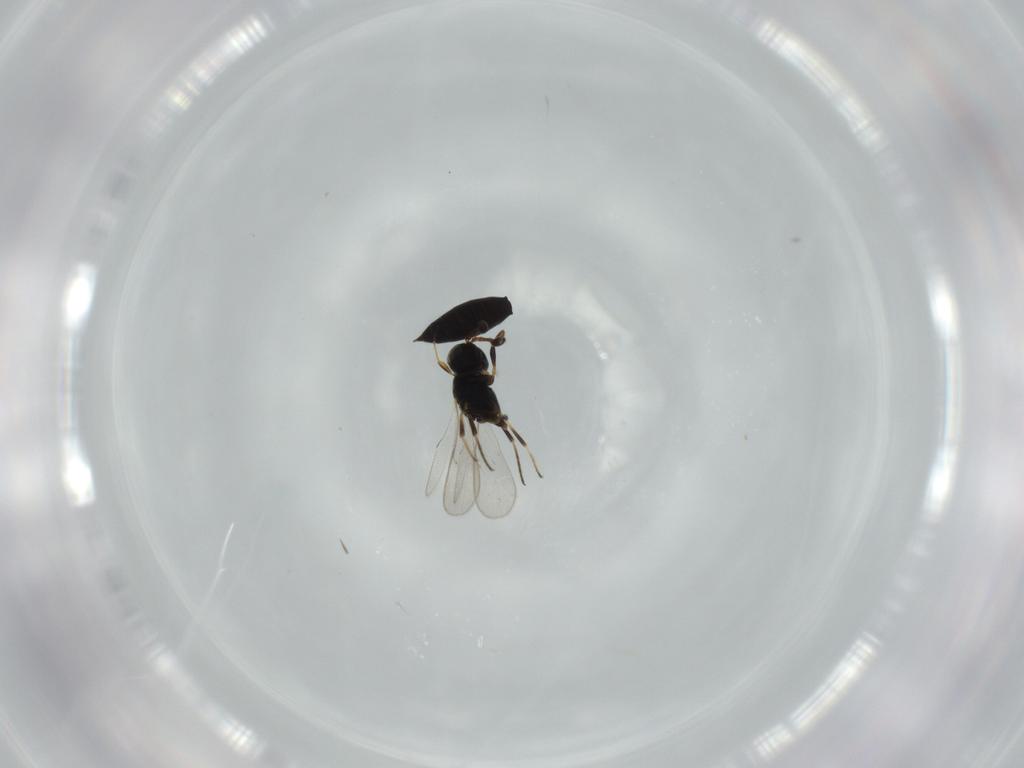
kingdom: Animalia
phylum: Arthropoda
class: Insecta
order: Hymenoptera
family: Scelionidae
